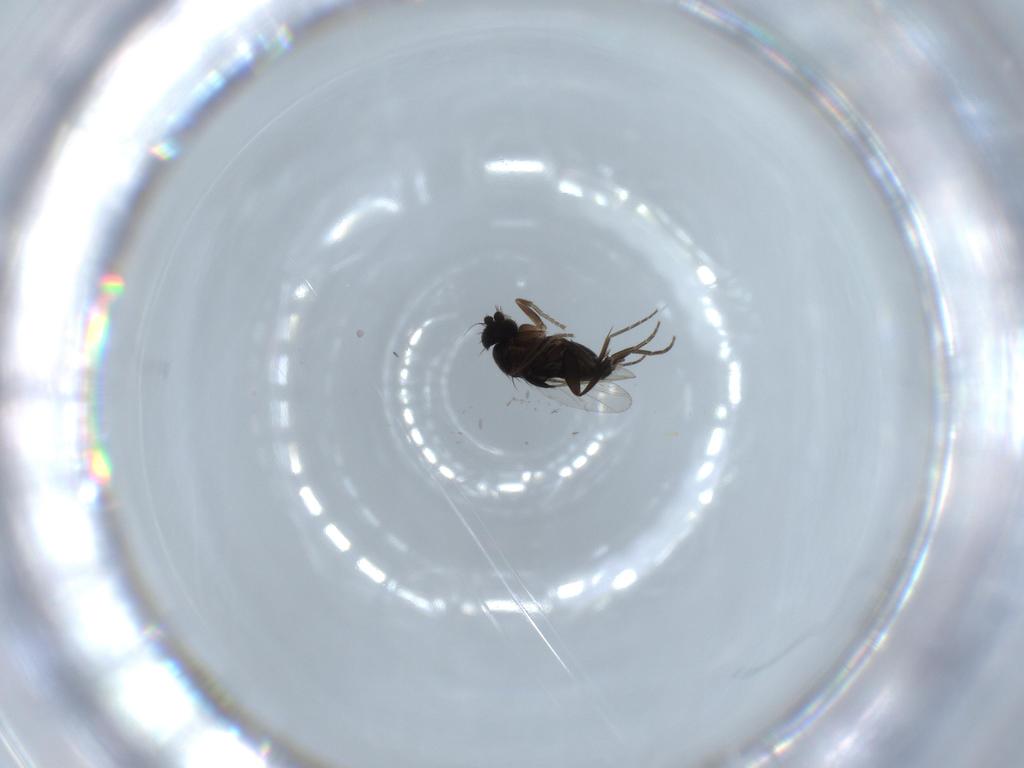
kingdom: Animalia
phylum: Arthropoda
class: Insecta
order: Diptera
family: Phoridae
